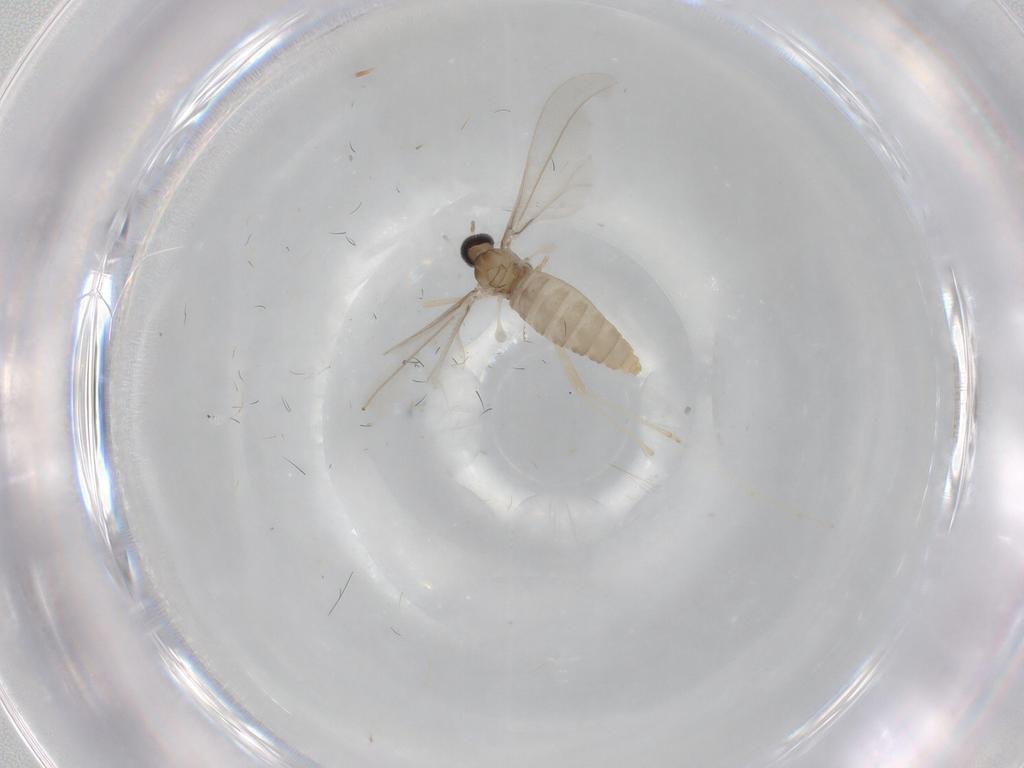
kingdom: Animalia
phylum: Arthropoda
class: Insecta
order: Diptera
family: Cecidomyiidae
